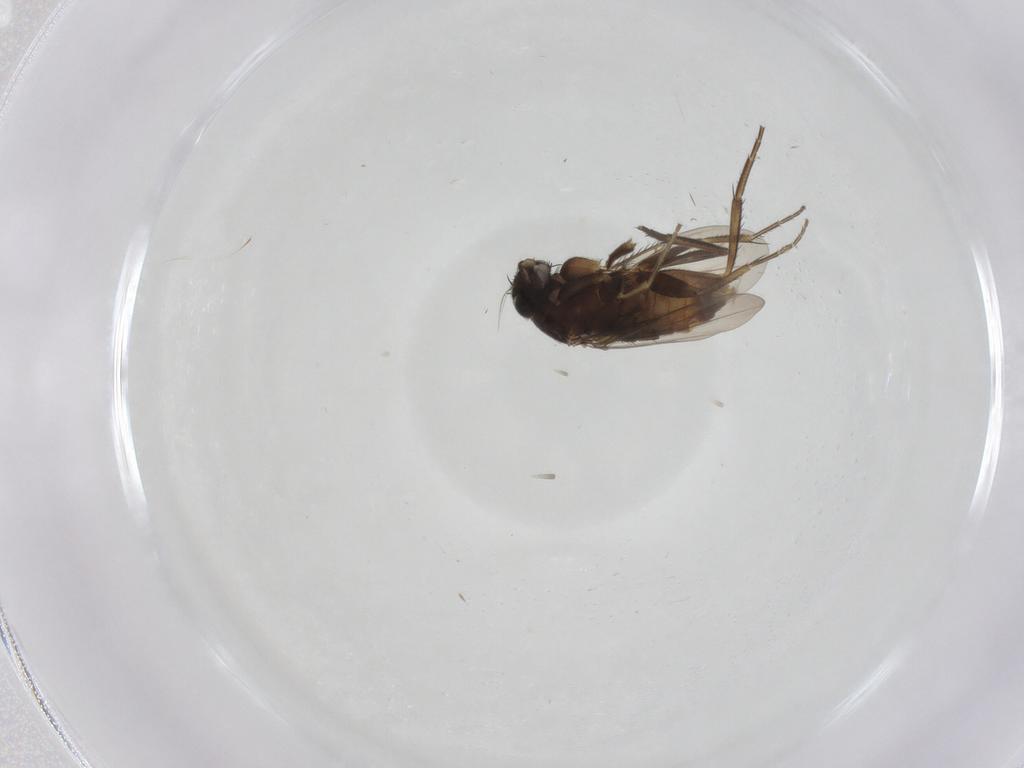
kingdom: Animalia
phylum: Arthropoda
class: Insecta
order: Diptera
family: Phoridae
